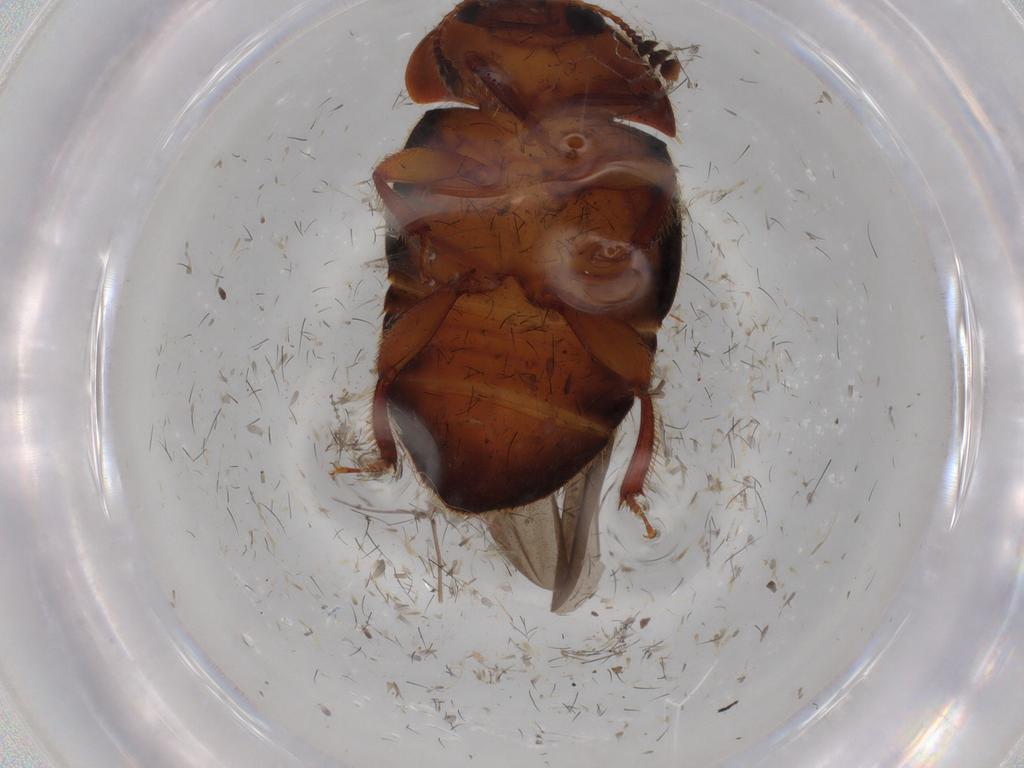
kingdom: Animalia
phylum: Arthropoda
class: Insecta
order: Coleoptera
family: Nitidulidae
